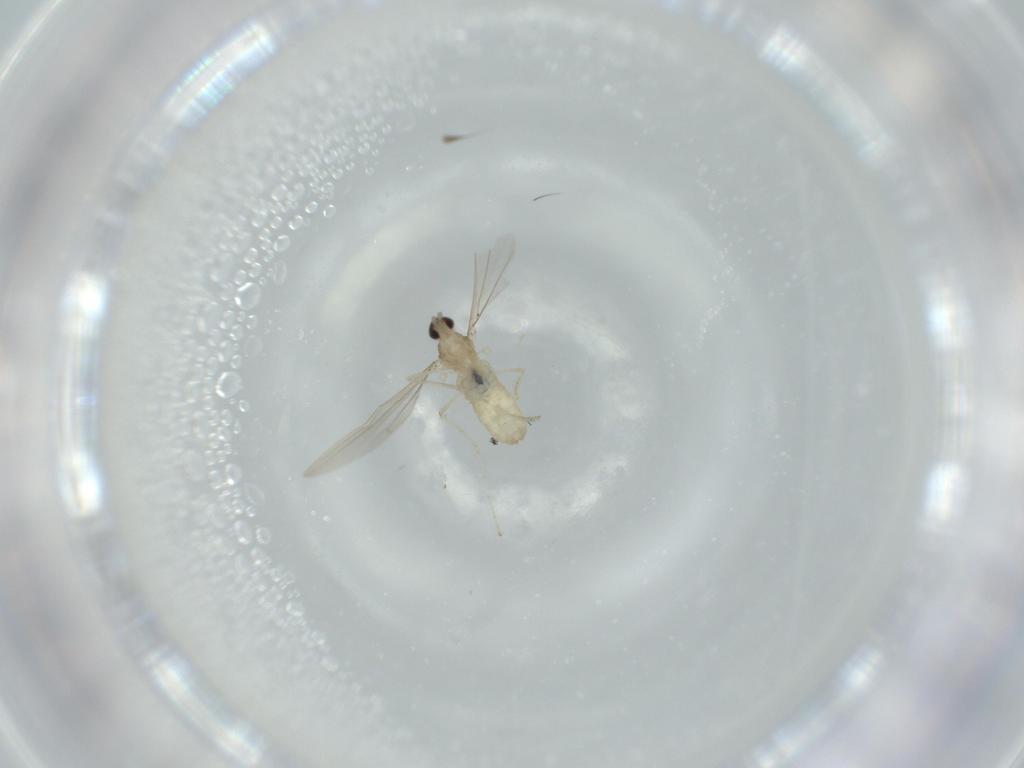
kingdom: Animalia
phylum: Arthropoda
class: Insecta
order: Diptera
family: Cecidomyiidae
